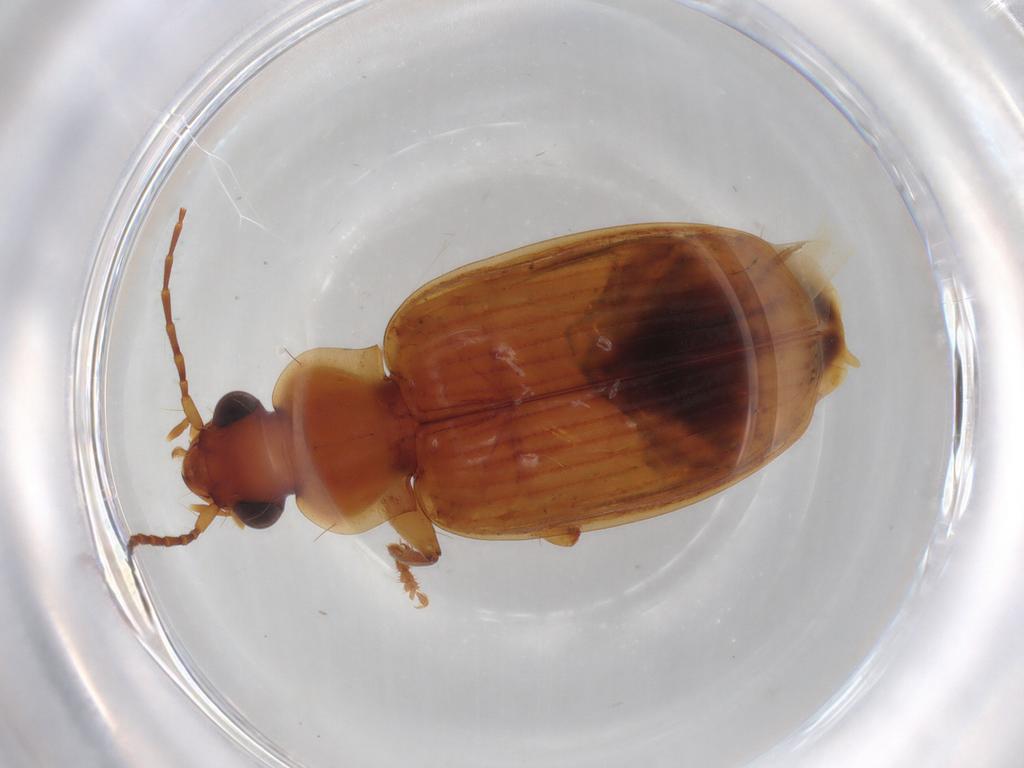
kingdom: Animalia
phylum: Arthropoda
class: Insecta
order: Coleoptera
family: Carabidae
